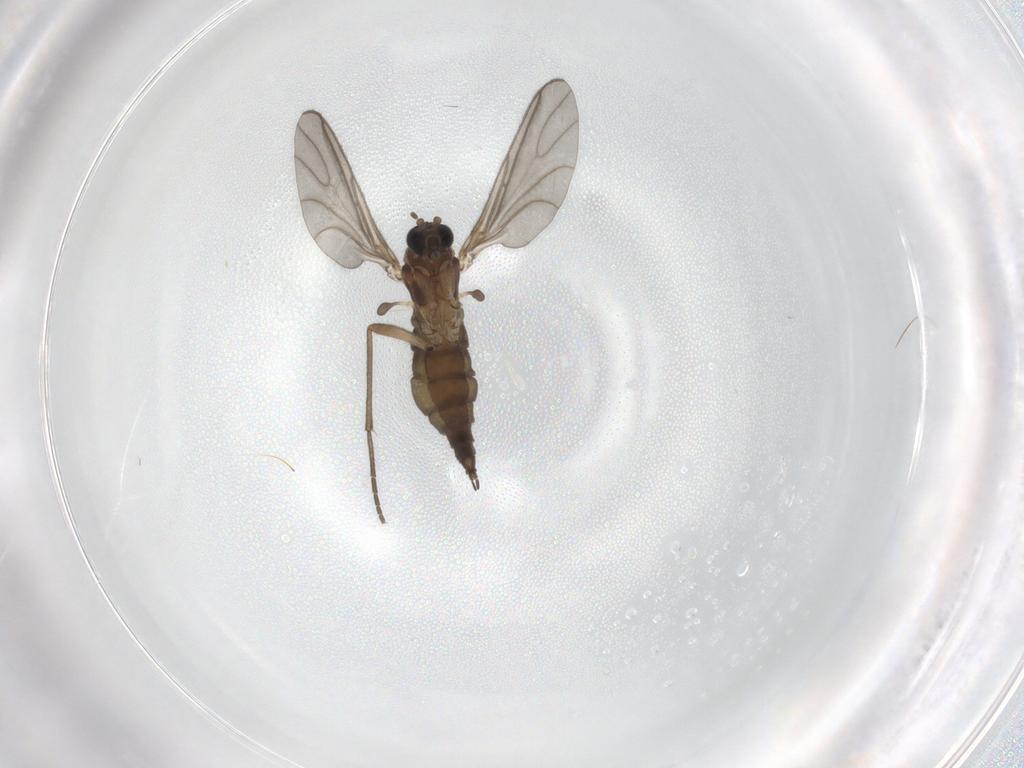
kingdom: Animalia
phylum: Arthropoda
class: Insecta
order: Diptera
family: Sciaridae
